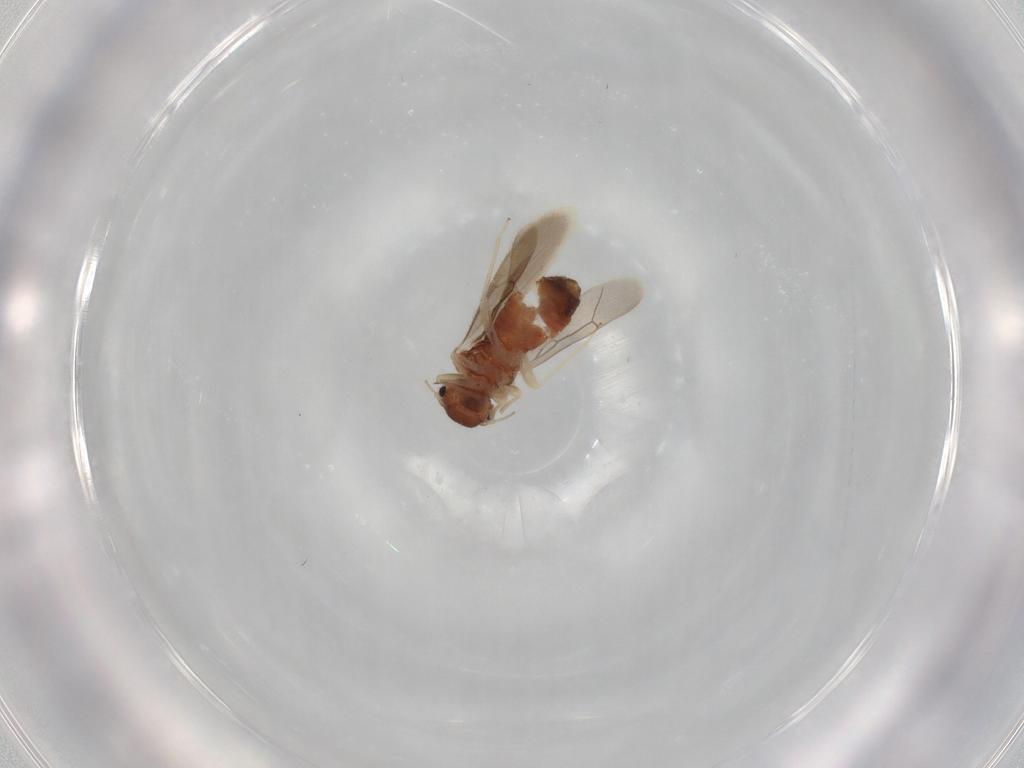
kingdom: Animalia
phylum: Arthropoda
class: Insecta
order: Psocodea
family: Archipsocidae
